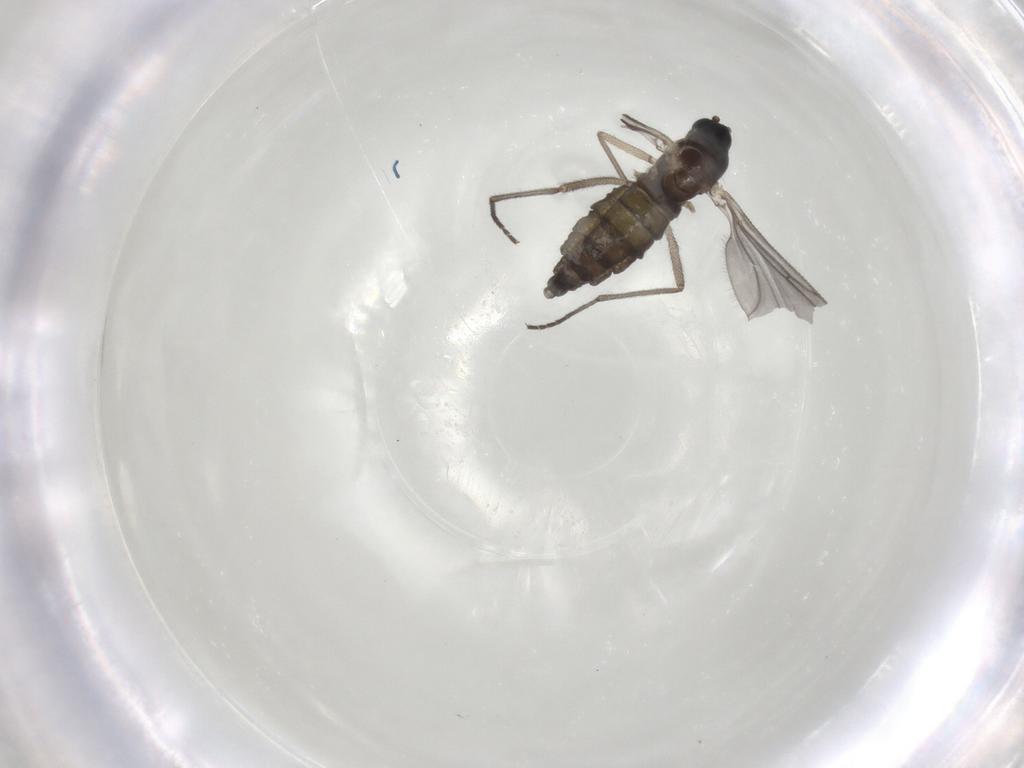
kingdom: Animalia
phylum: Arthropoda
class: Insecta
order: Diptera
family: Sciaridae
